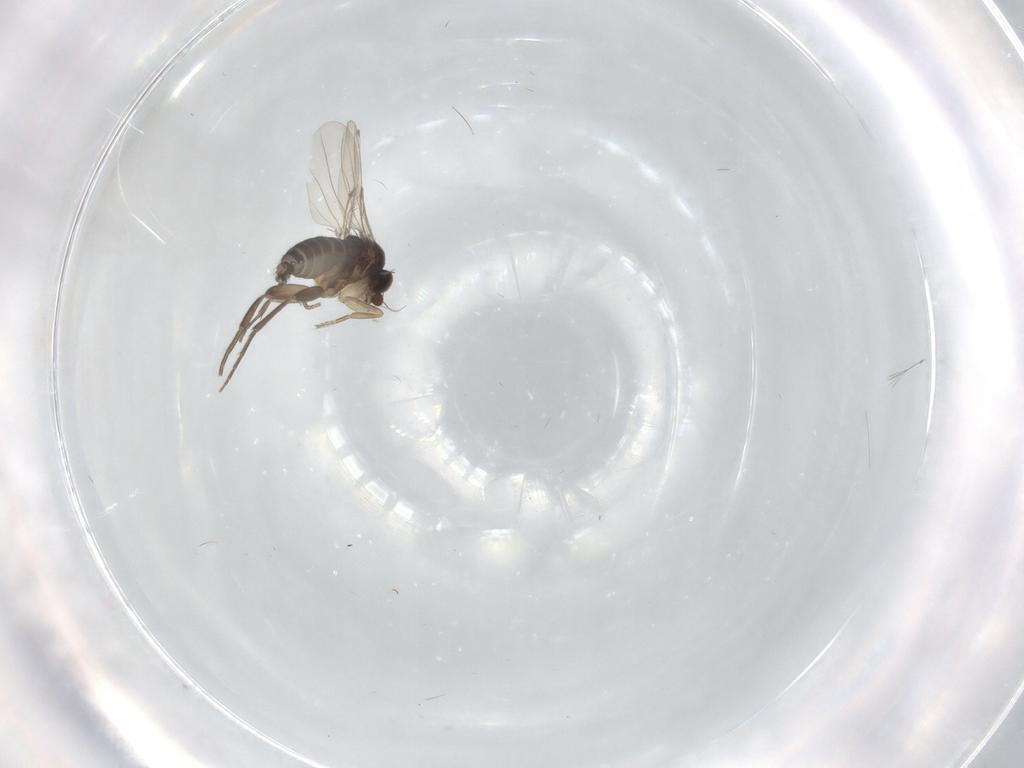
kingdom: Animalia
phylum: Arthropoda
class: Insecta
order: Diptera
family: Phoridae
